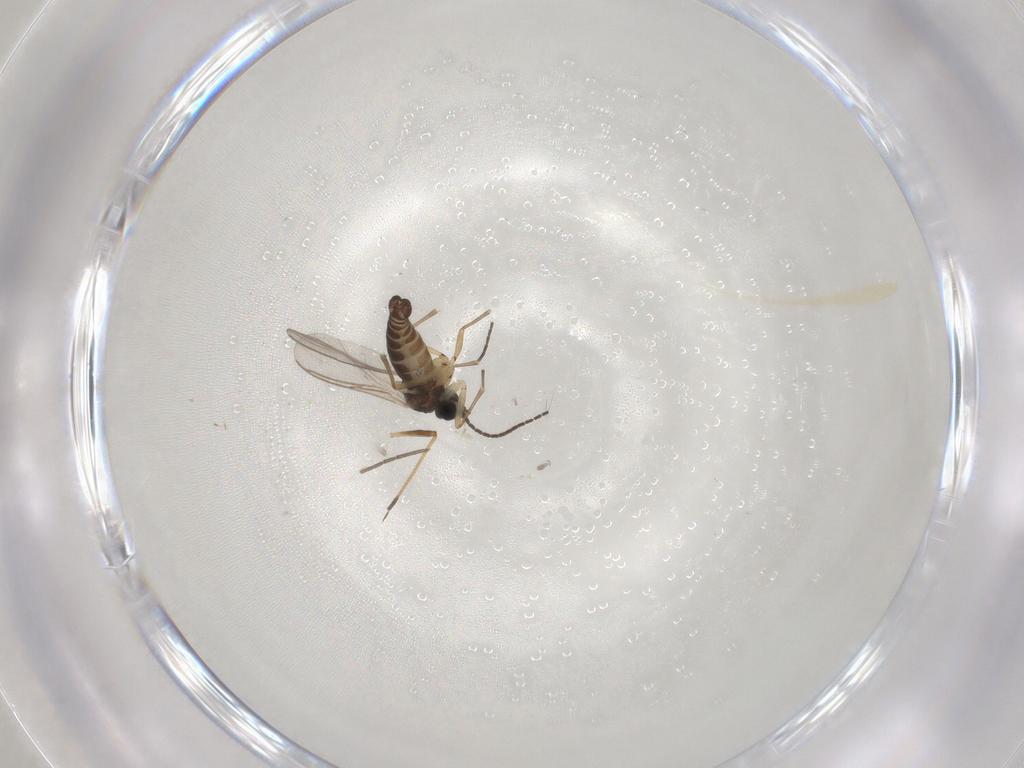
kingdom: Animalia
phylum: Arthropoda
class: Insecta
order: Diptera
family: Sciaridae
